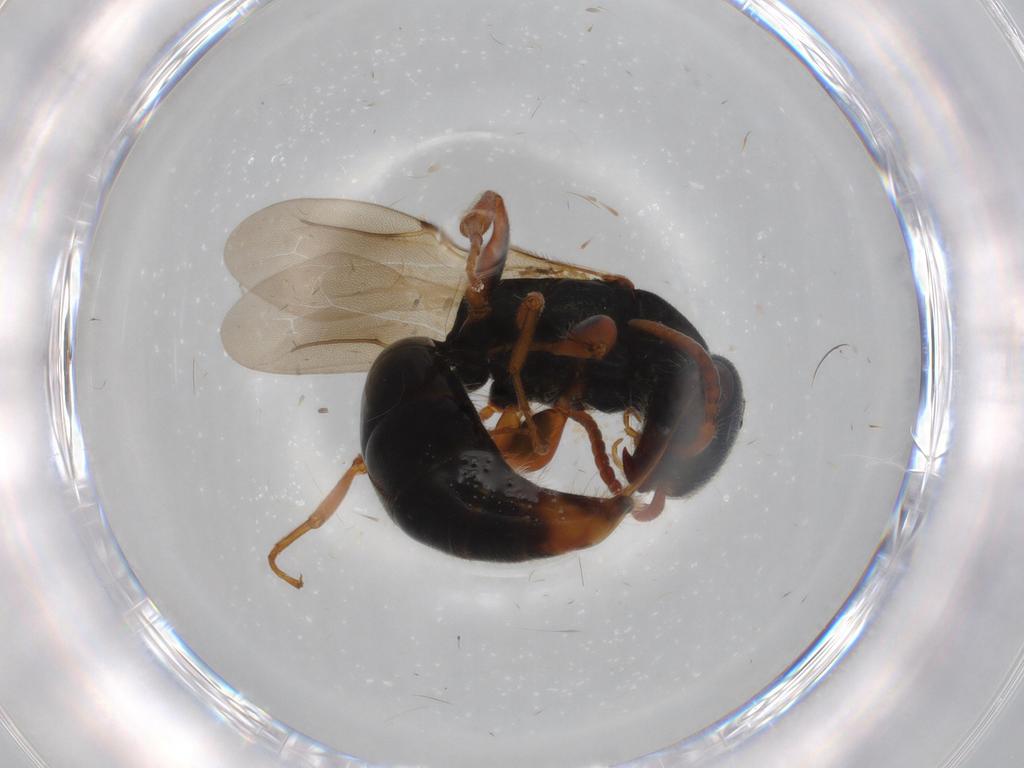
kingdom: Animalia
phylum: Arthropoda
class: Insecta
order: Hymenoptera
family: Bethylidae
